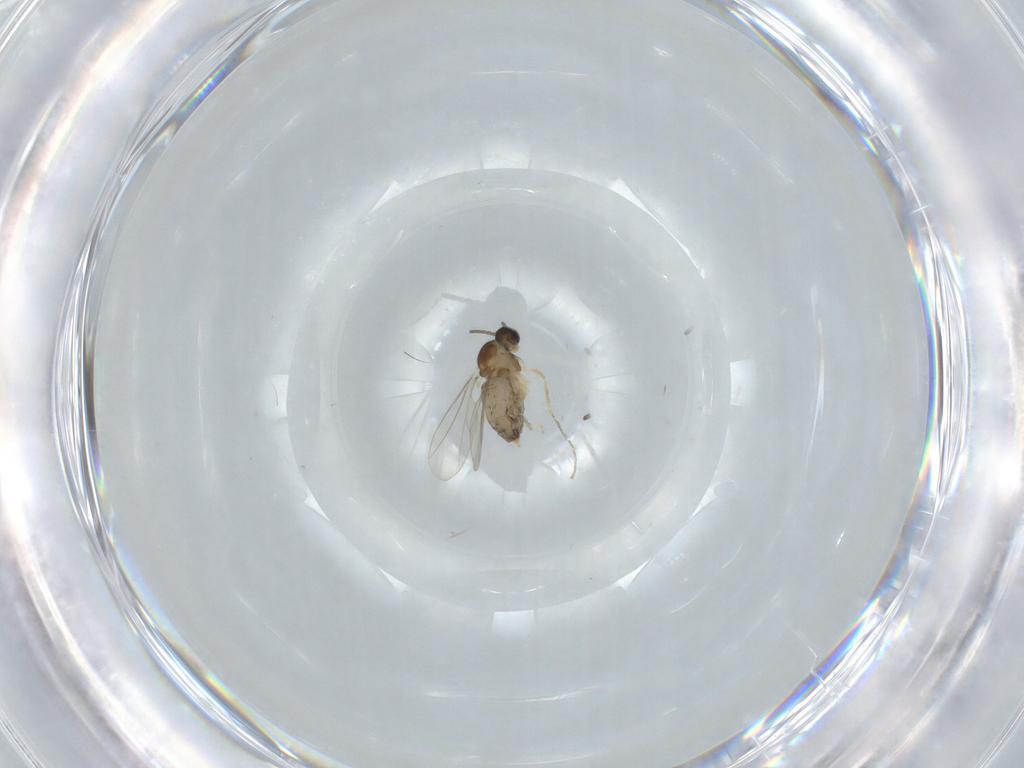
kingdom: Animalia
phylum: Arthropoda
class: Insecta
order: Diptera
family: Cecidomyiidae
